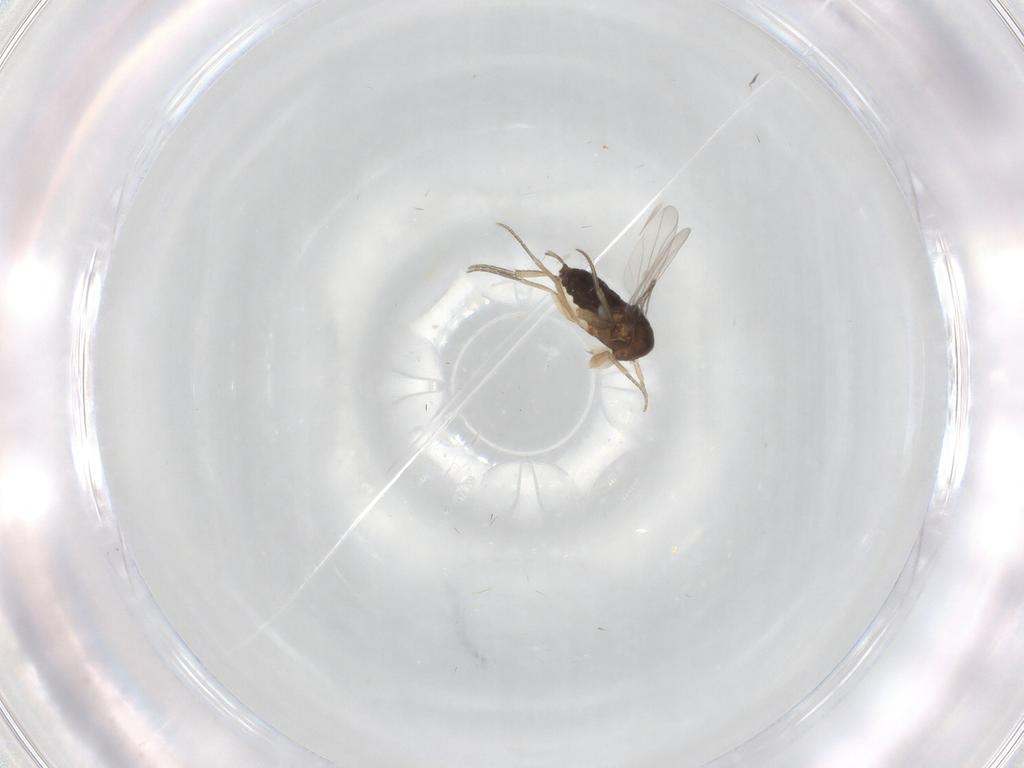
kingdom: Animalia
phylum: Arthropoda
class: Insecta
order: Diptera
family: Phoridae
